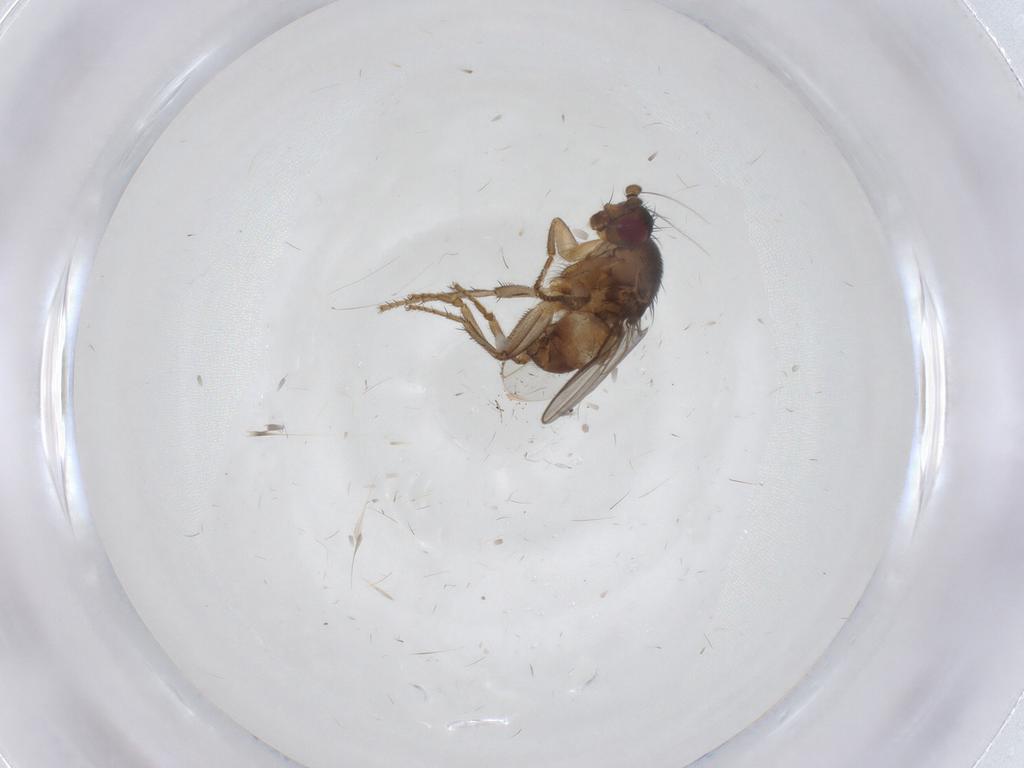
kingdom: Animalia
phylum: Arthropoda
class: Insecta
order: Diptera
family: Sphaeroceridae
